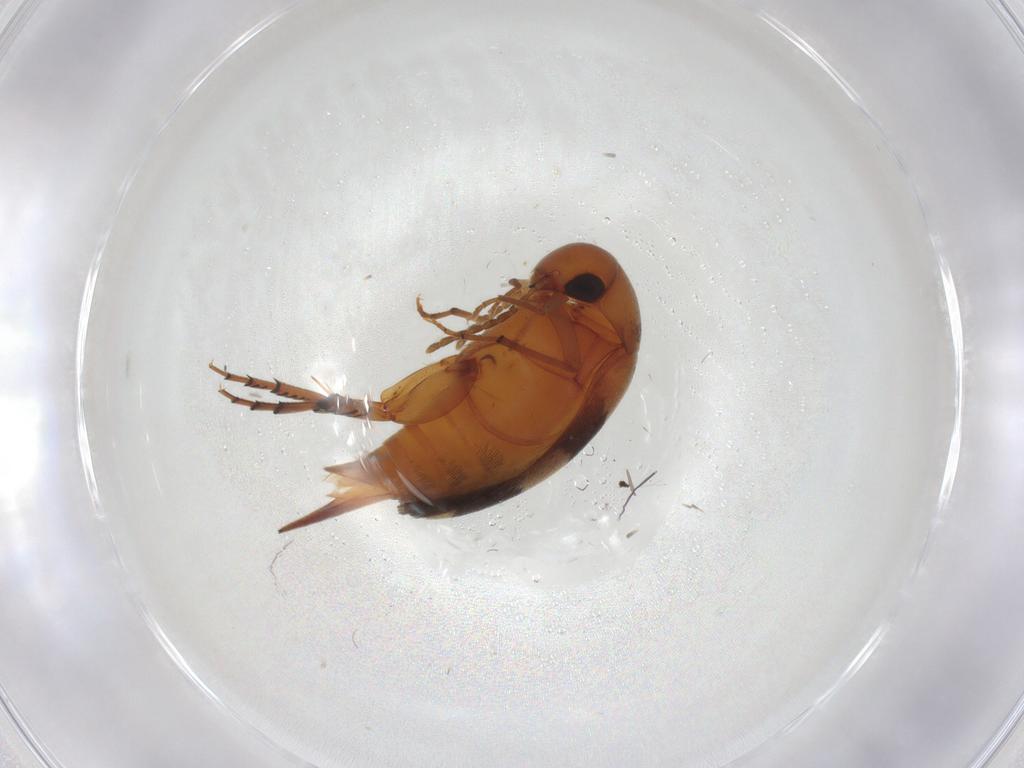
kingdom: Animalia
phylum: Arthropoda
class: Insecta
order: Coleoptera
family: Mordellidae
